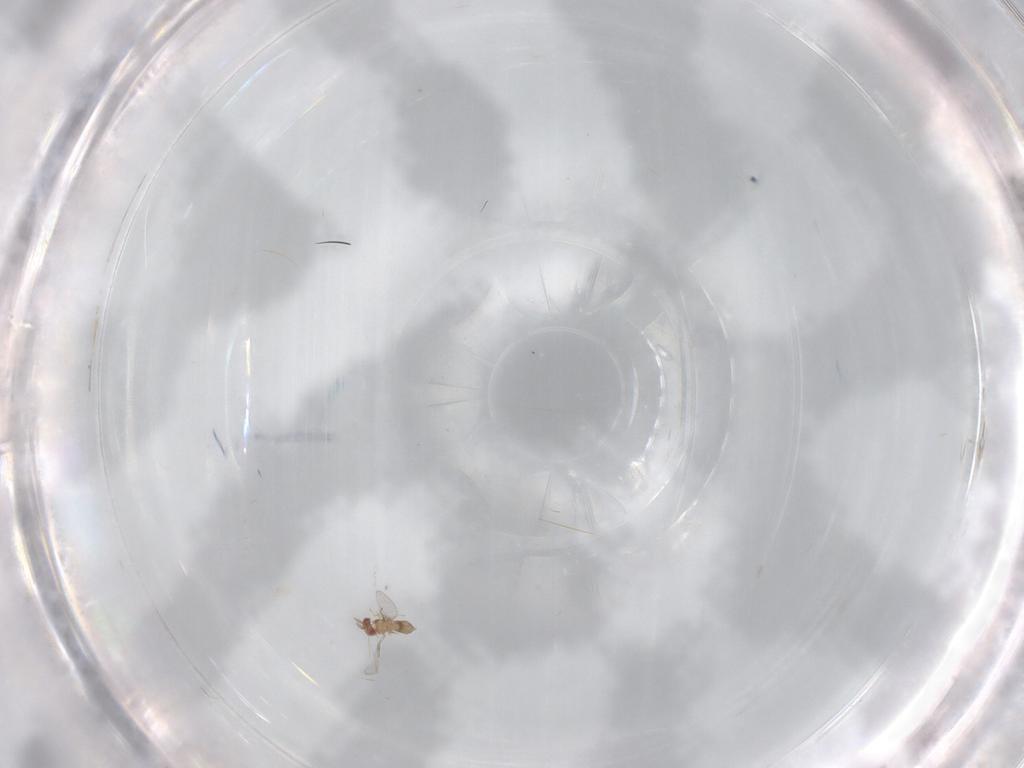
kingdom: Animalia
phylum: Arthropoda
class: Insecta
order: Hymenoptera
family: Trichogrammatidae
